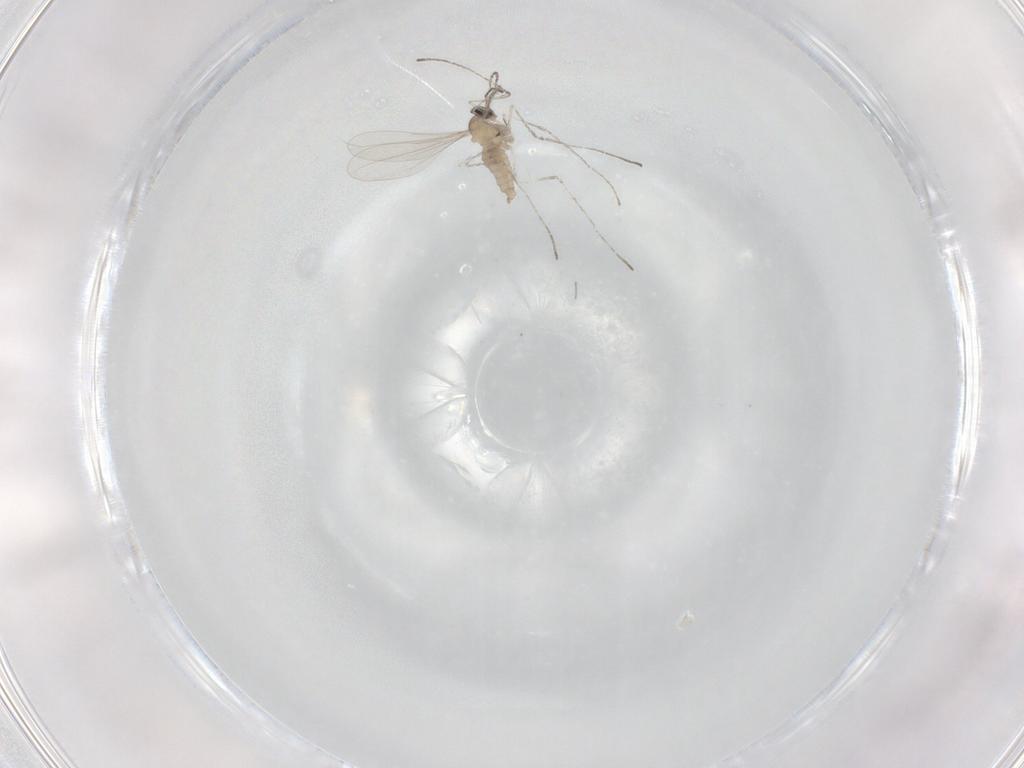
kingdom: Animalia
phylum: Arthropoda
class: Insecta
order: Diptera
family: Cecidomyiidae
